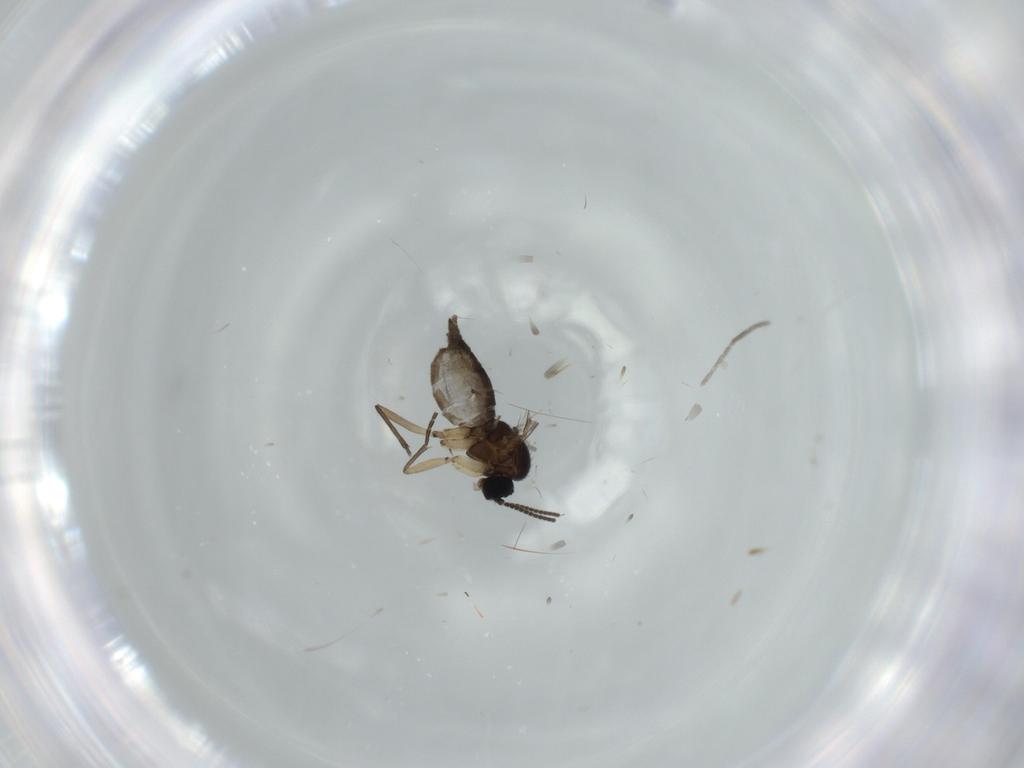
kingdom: Animalia
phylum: Arthropoda
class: Insecta
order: Diptera
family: Sciaridae
